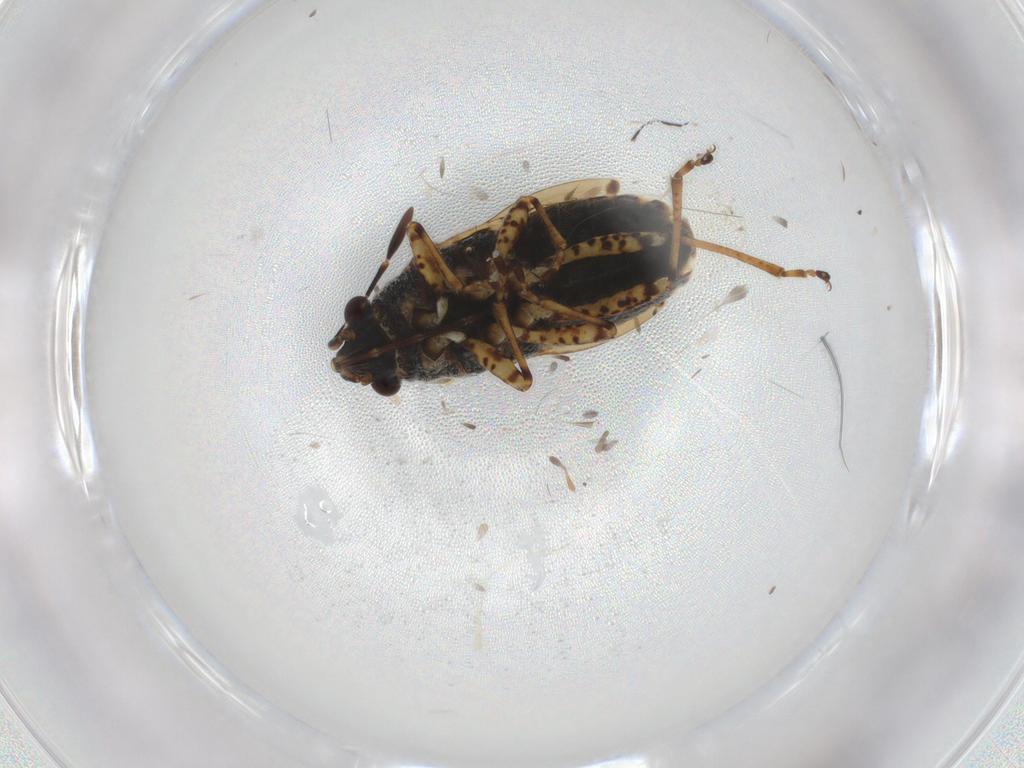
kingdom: Animalia
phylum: Arthropoda
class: Insecta
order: Hemiptera
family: Lygaeidae
